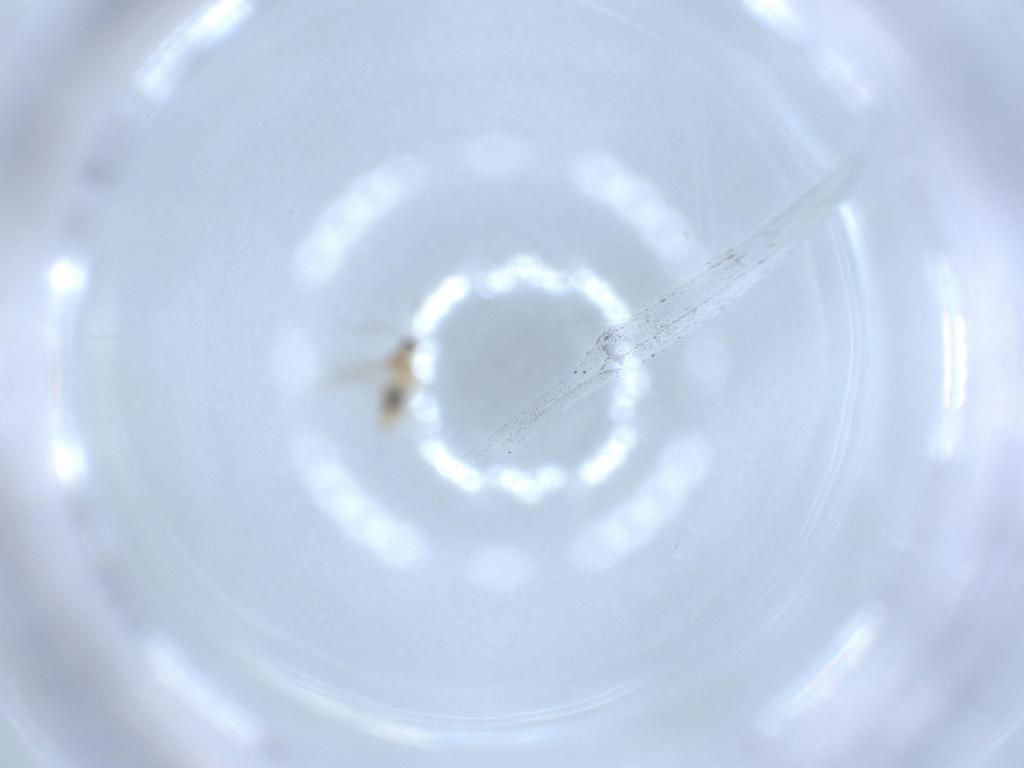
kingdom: Animalia
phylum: Arthropoda
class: Insecta
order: Diptera
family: Cecidomyiidae
